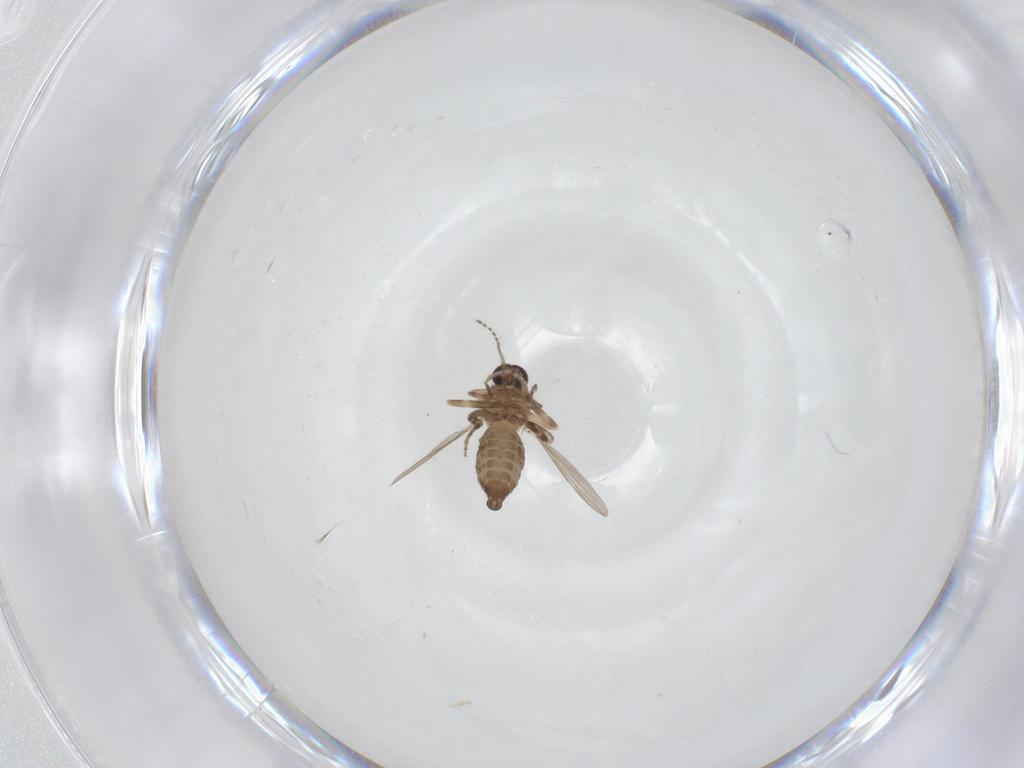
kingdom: Animalia
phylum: Arthropoda
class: Insecta
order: Diptera
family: Ceratopogonidae
